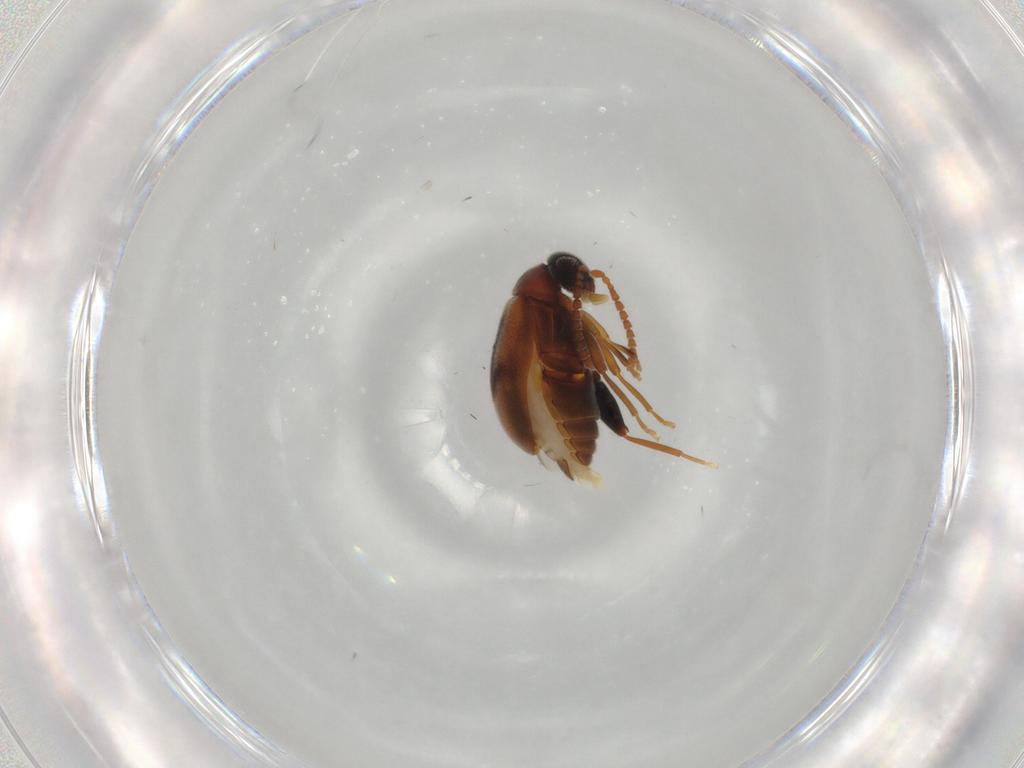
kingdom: Animalia
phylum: Arthropoda
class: Insecta
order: Coleoptera
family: Aderidae
